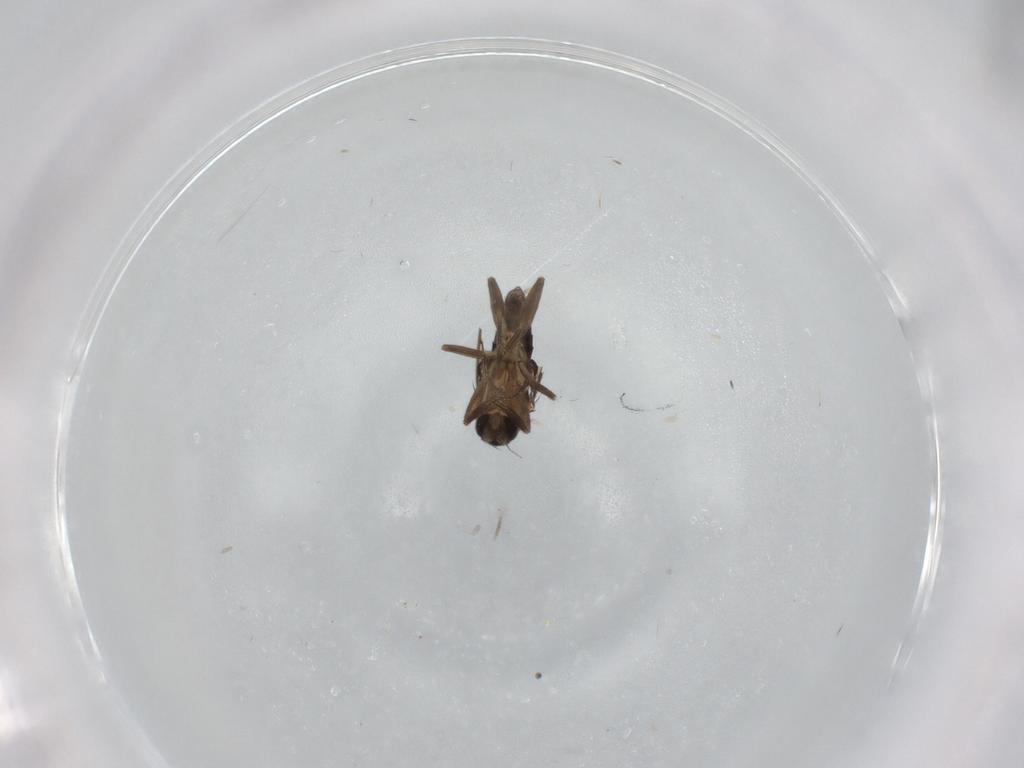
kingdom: Animalia
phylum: Arthropoda
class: Insecta
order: Diptera
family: Phoridae
